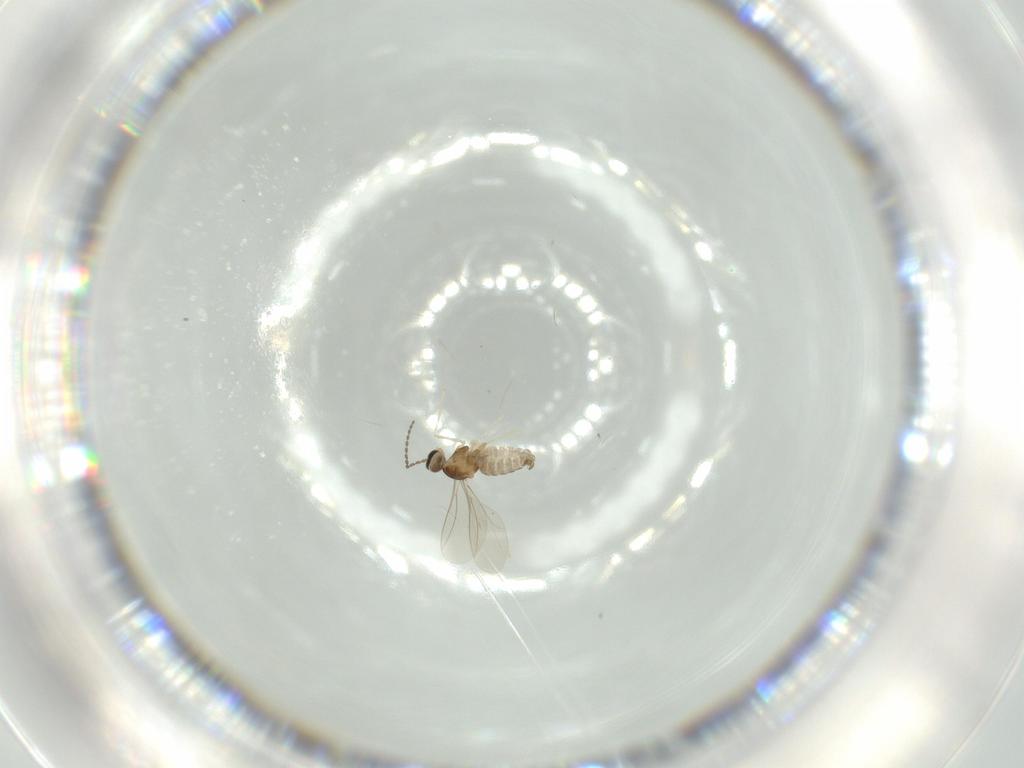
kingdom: Animalia
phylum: Arthropoda
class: Insecta
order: Diptera
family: Cecidomyiidae
